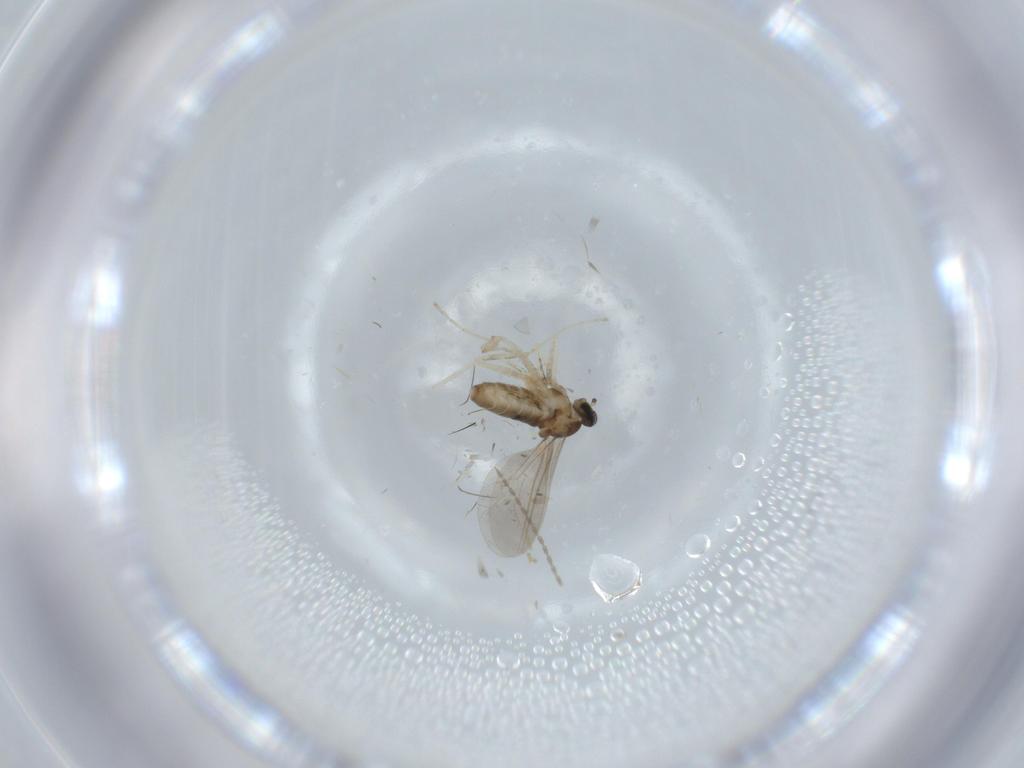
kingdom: Animalia
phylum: Arthropoda
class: Insecta
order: Diptera
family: Cecidomyiidae
